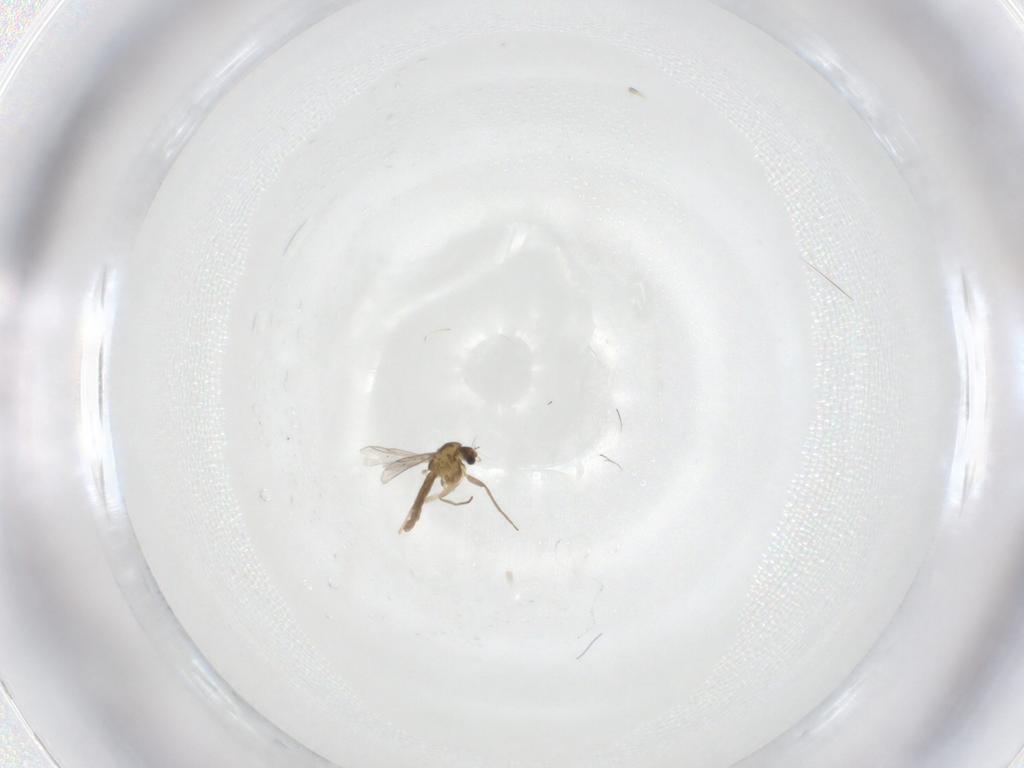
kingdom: Animalia
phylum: Arthropoda
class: Insecta
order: Diptera
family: Chironomidae
